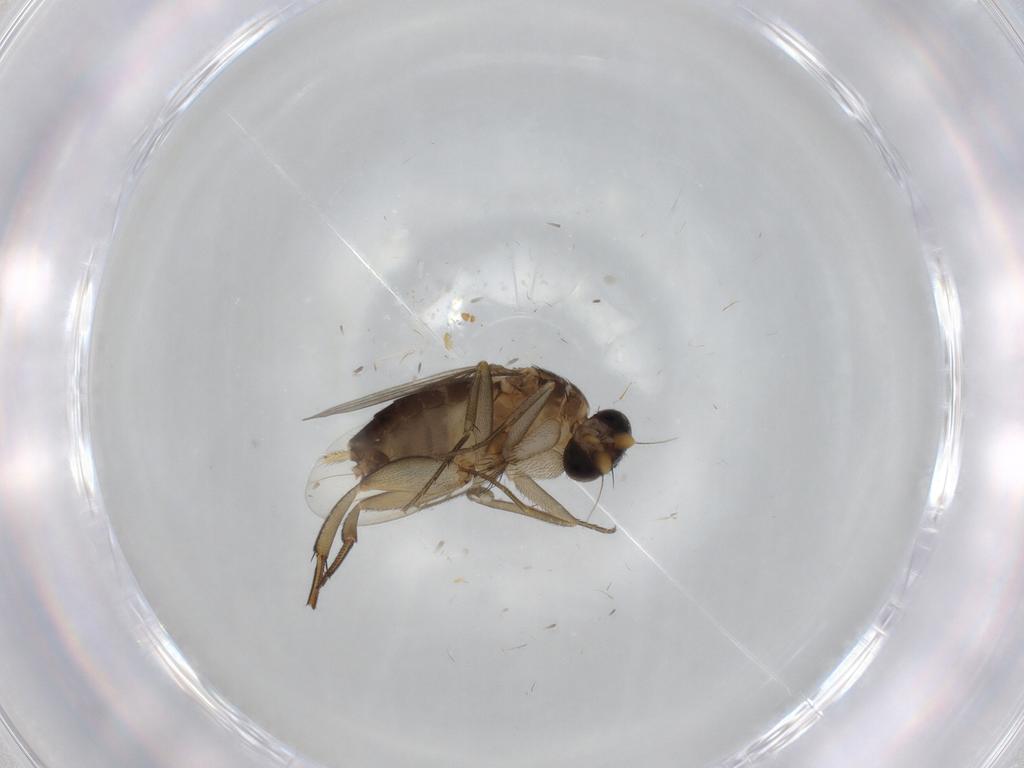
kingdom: Animalia
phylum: Arthropoda
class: Insecta
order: Diptera
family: Phoridae
